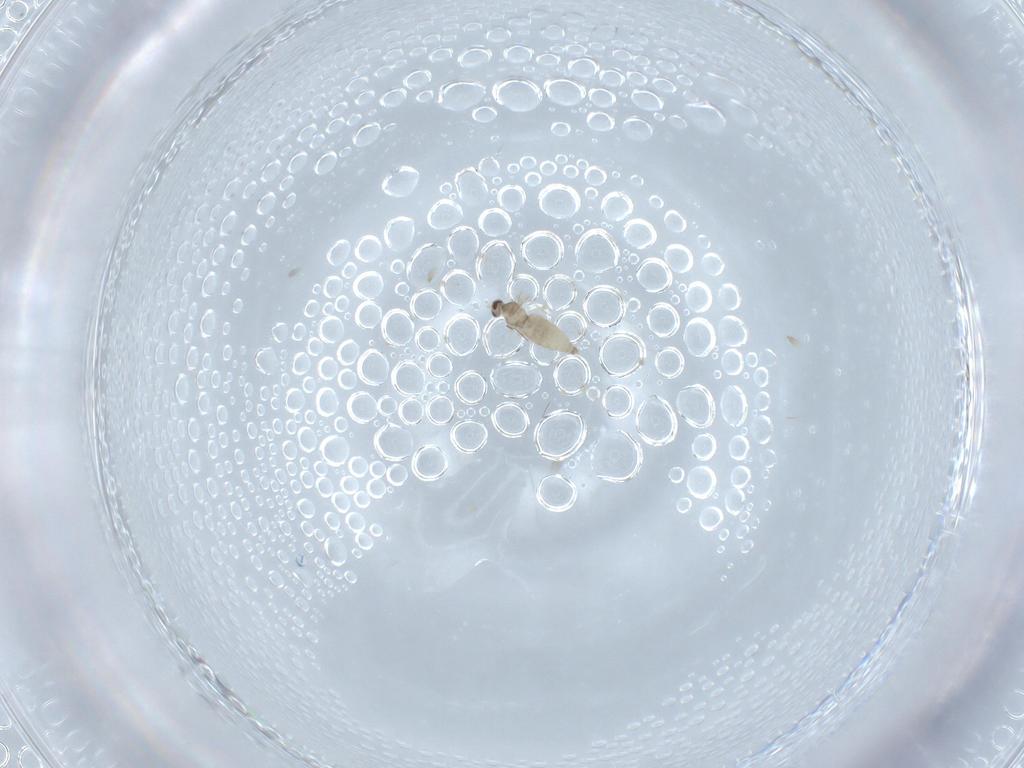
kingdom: Animalia
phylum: Arthropoda
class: Insecta
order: Diptera
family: Cecidomyiidae
